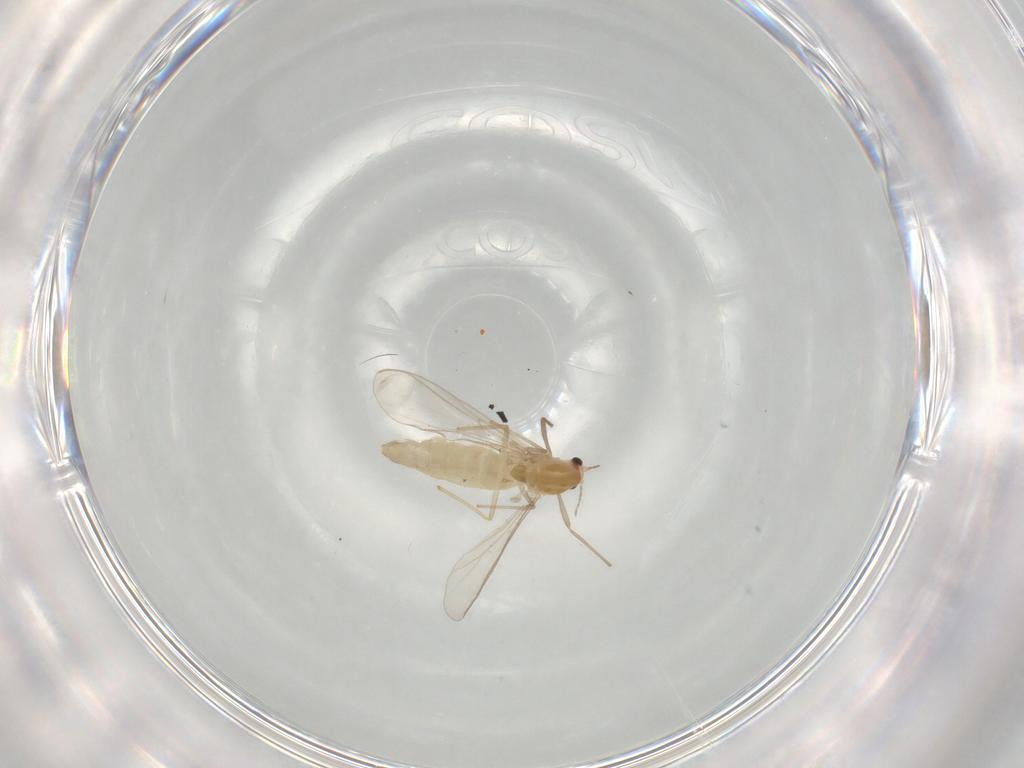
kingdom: Animalia
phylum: Arthropoda
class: Insecta
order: Diptera
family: Chironomidae
